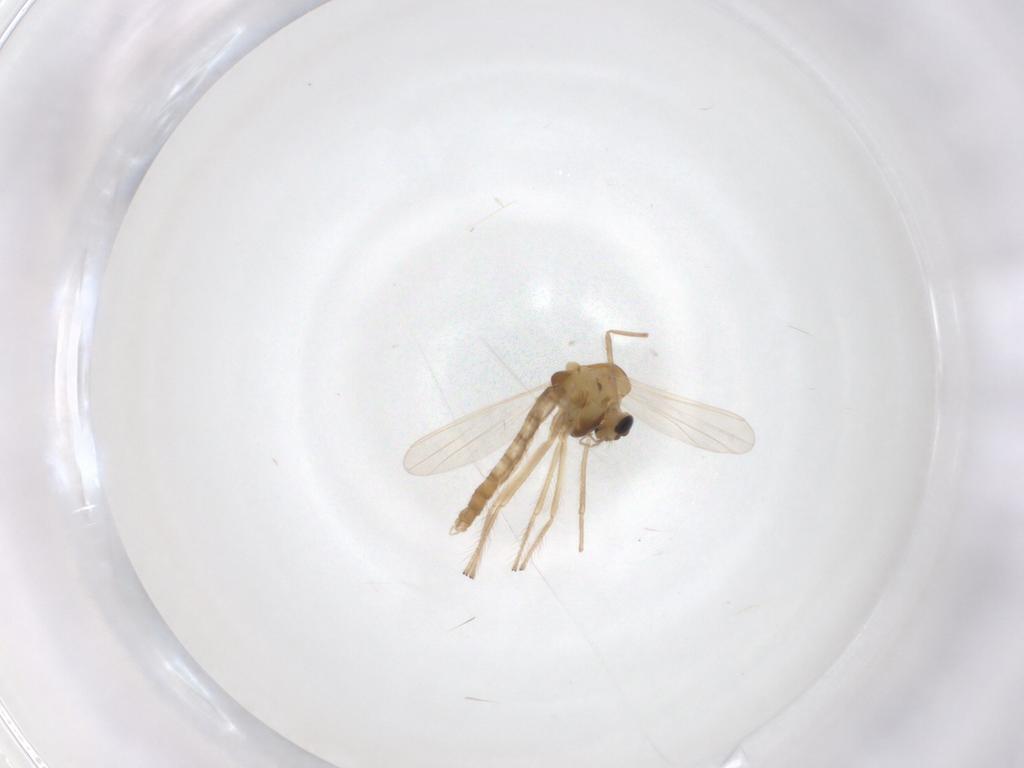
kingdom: Animalia
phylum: Arthropoda
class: Insecta
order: Diptera
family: Chironomidae
